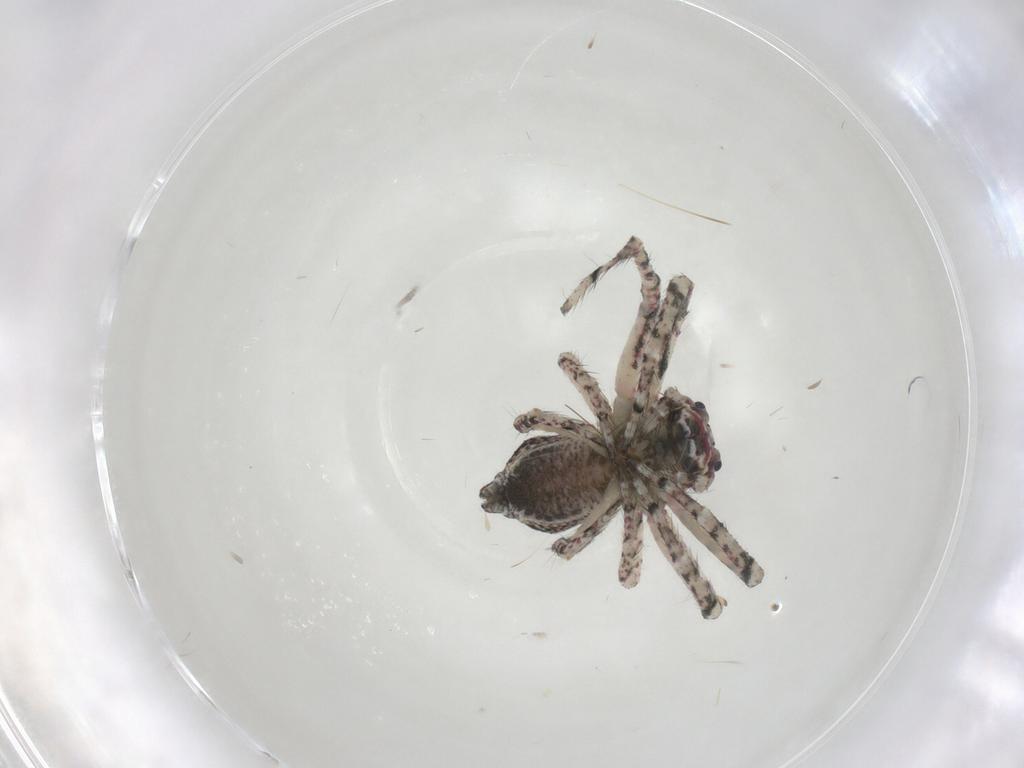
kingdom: Animalia
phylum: Arthropoda
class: Arachnida
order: Araneae
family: Thomisidae
